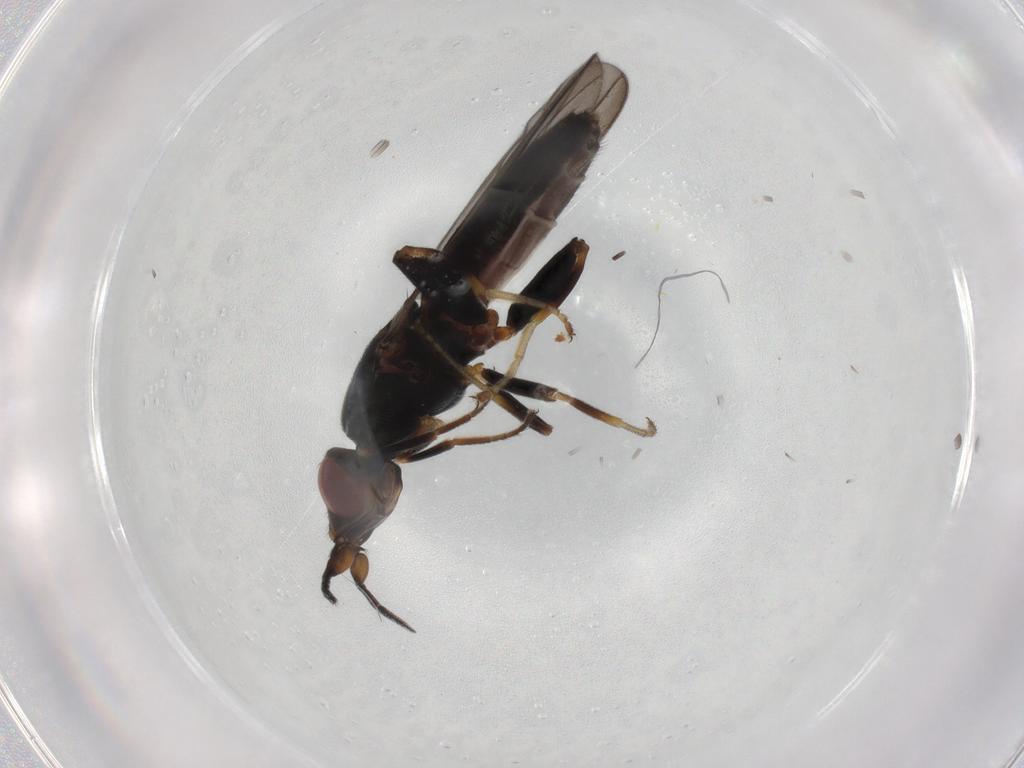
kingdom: Animalia
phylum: Arthropoda
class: Insecta
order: Diptera
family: Chloropidae
